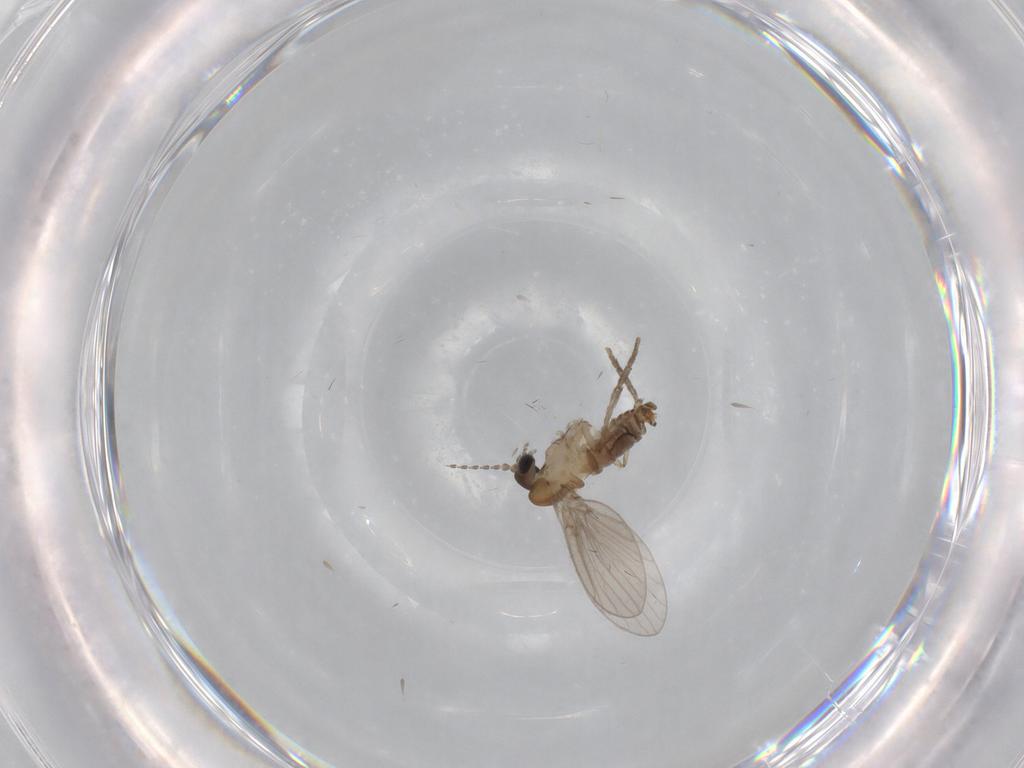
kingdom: Animalia
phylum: Arthropoda
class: Insecta
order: Diptera
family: Psychodidae
